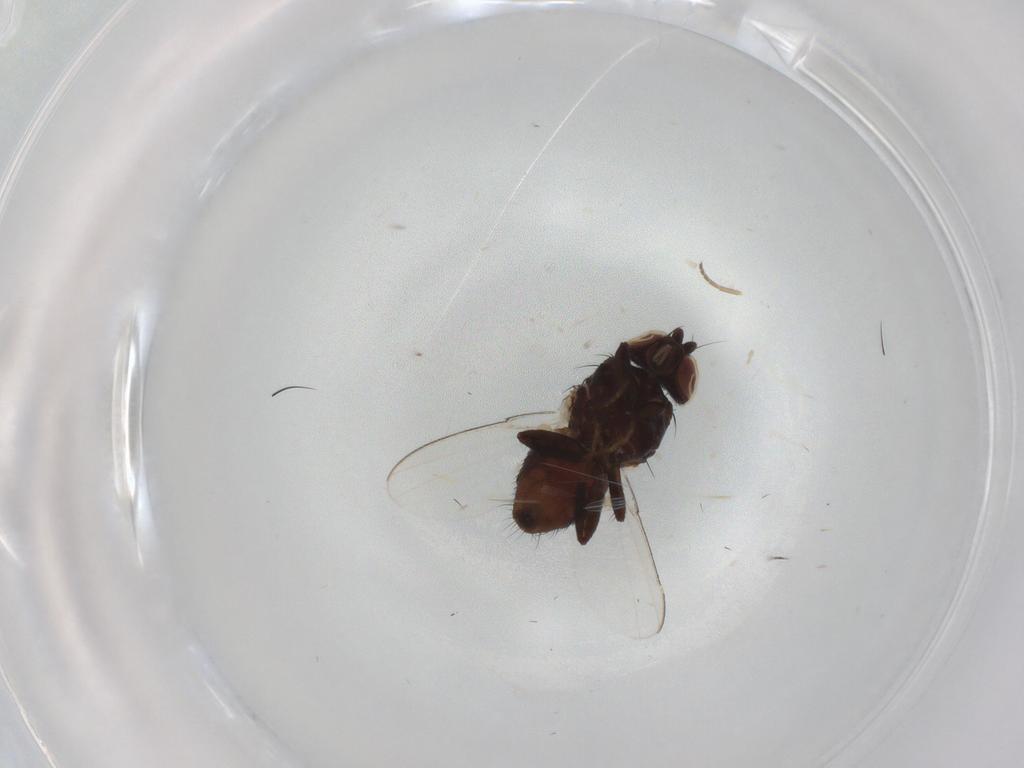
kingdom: Animalia
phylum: Arthropoda
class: Insecta
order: Diptera
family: Milichiidae
